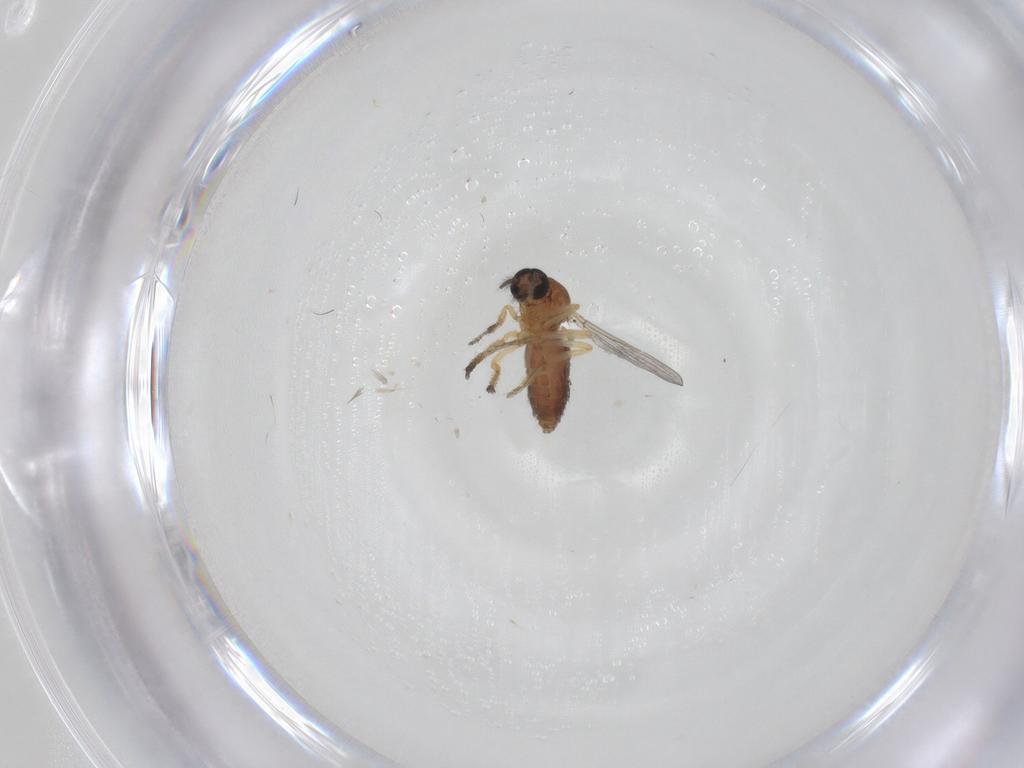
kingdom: Animalia
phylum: Arthropoda
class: Insecta
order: Diptera
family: Ceratopogonidae
